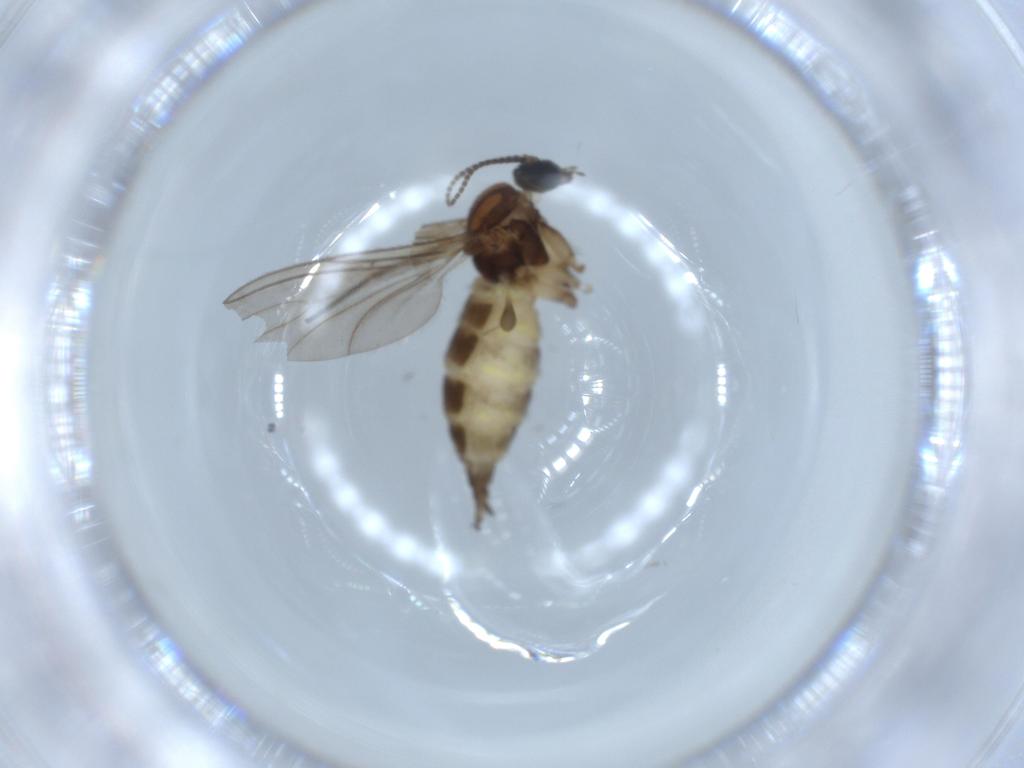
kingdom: Animalia
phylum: Arthropoda
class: Insecta
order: Diptera
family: Sciaridae
